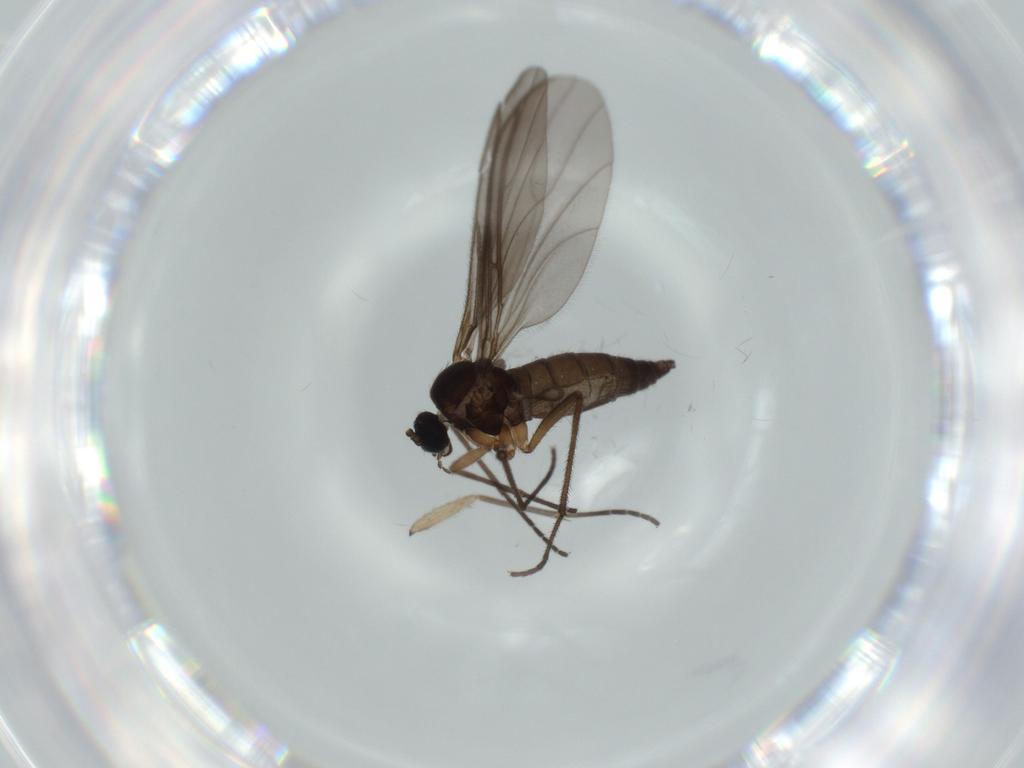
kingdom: Animalia
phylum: Arthropoda
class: Insecta
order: Diptera
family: Sciaridae
